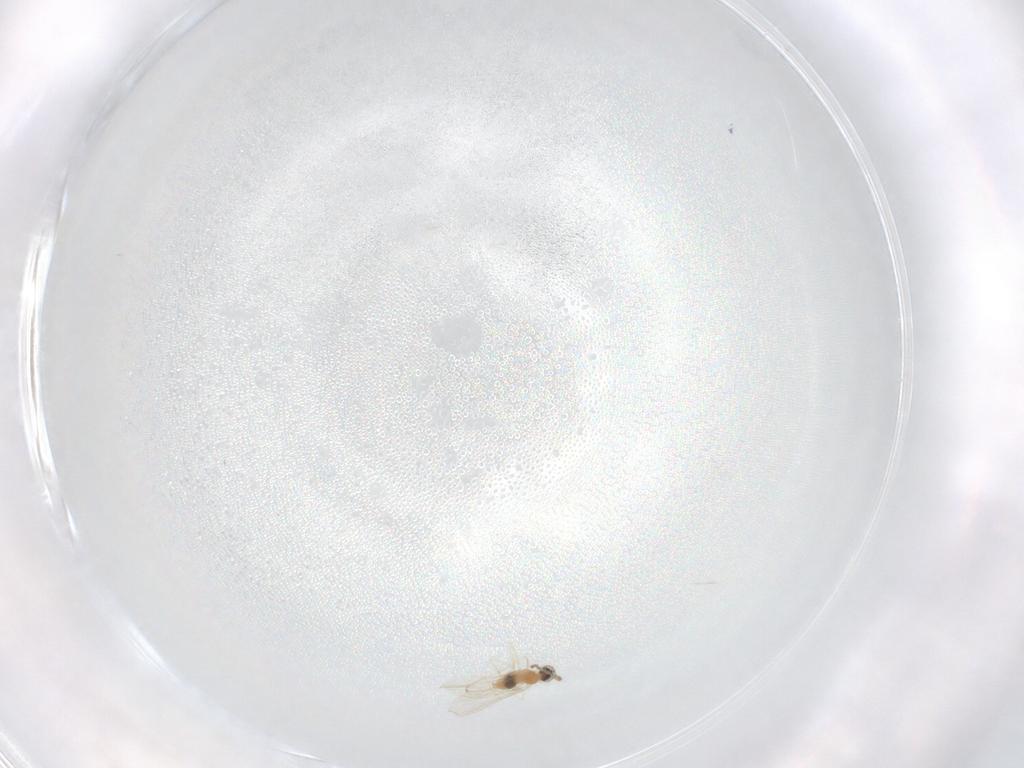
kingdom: Animalia
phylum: Arthropoda
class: Insecta
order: Diptera
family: Cecidomyiidae
